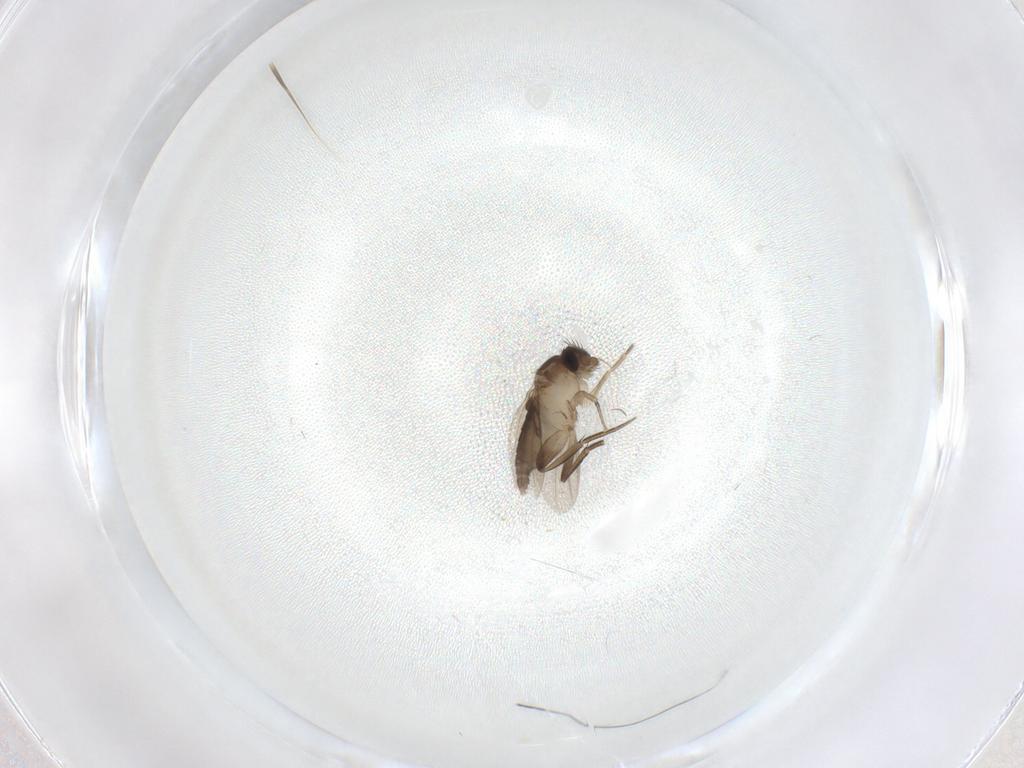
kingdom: Animalia
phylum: Arthropoda
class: Insecta
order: Diptera
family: Phoridae
